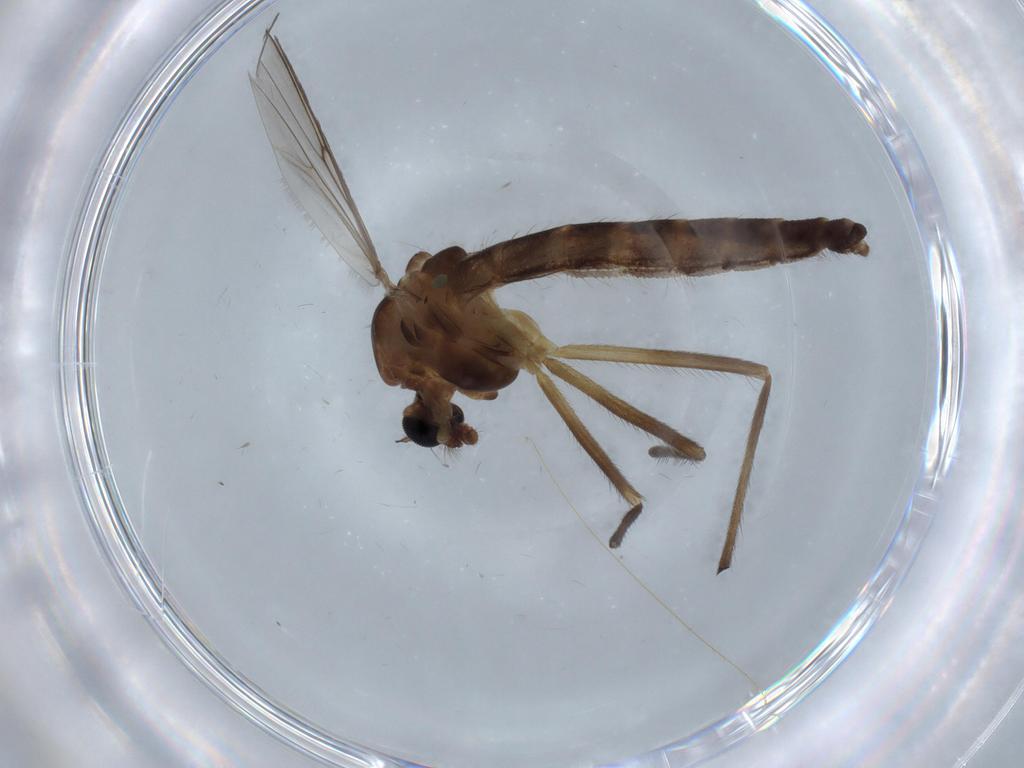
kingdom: Animalia
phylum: Arthropoda
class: Insecta
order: Diptera
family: Chironomidae
